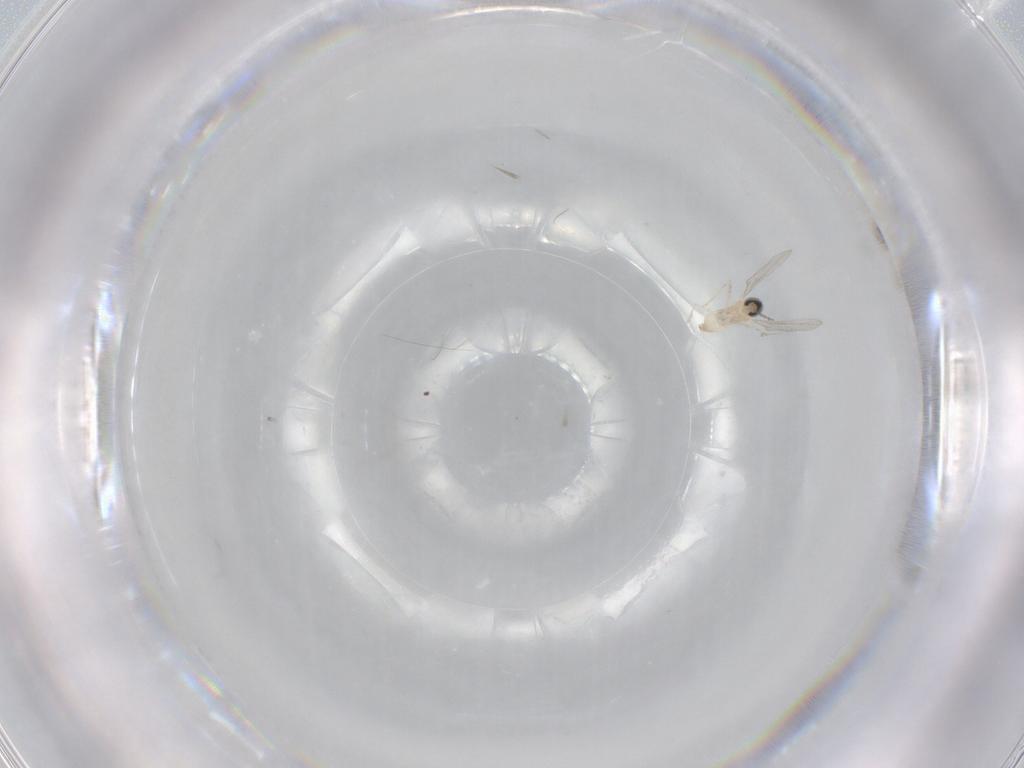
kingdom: Animalia
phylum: Arthropoda
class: Insecta
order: Diptera
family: Cecidomyiidae
